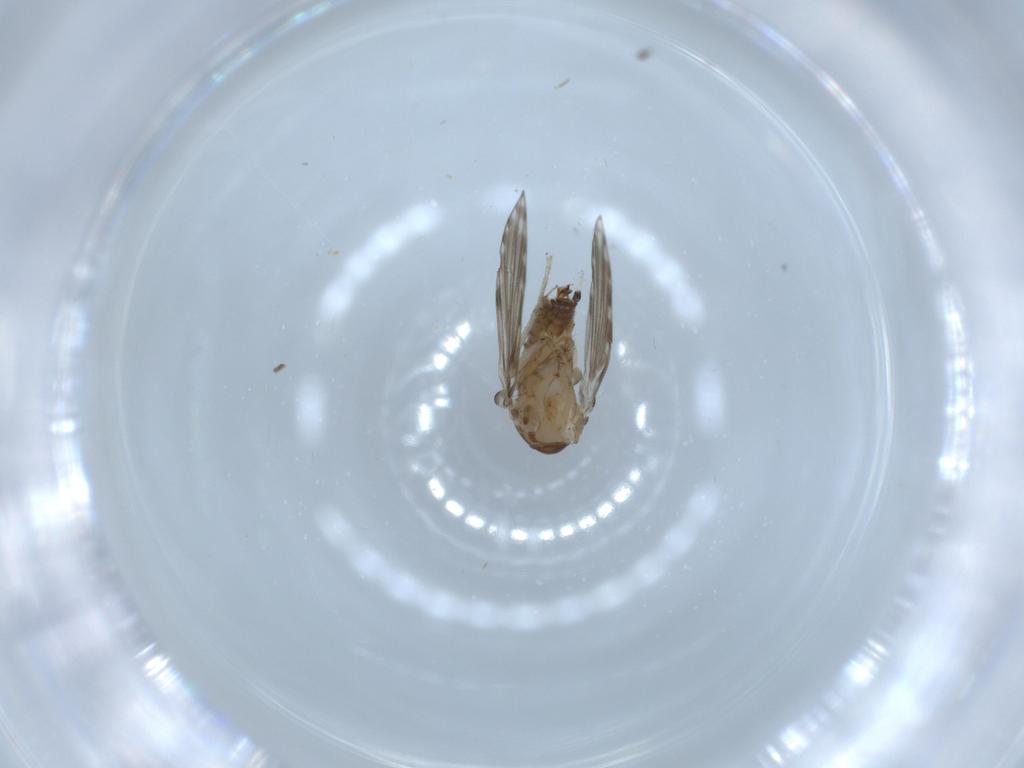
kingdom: Animalia
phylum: Arthropoda
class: Insecta
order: Diptera
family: Psychodidae
